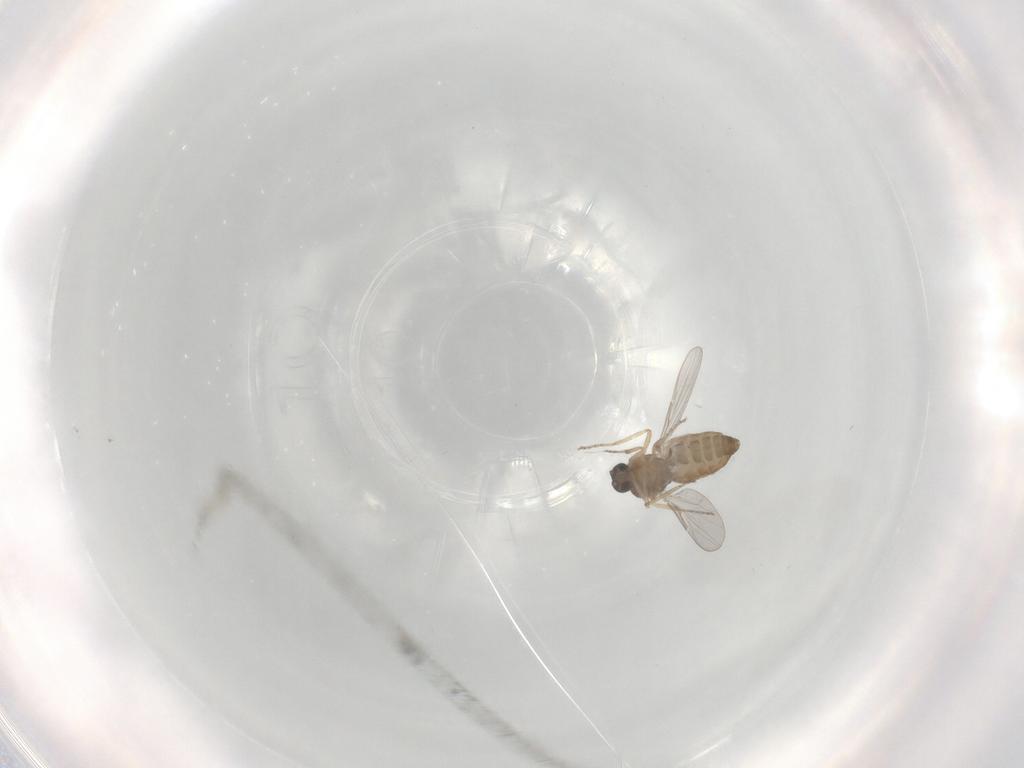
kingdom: Animalia
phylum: Arthropoda
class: Insecta
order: Diptera
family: Ceratopogonidae
